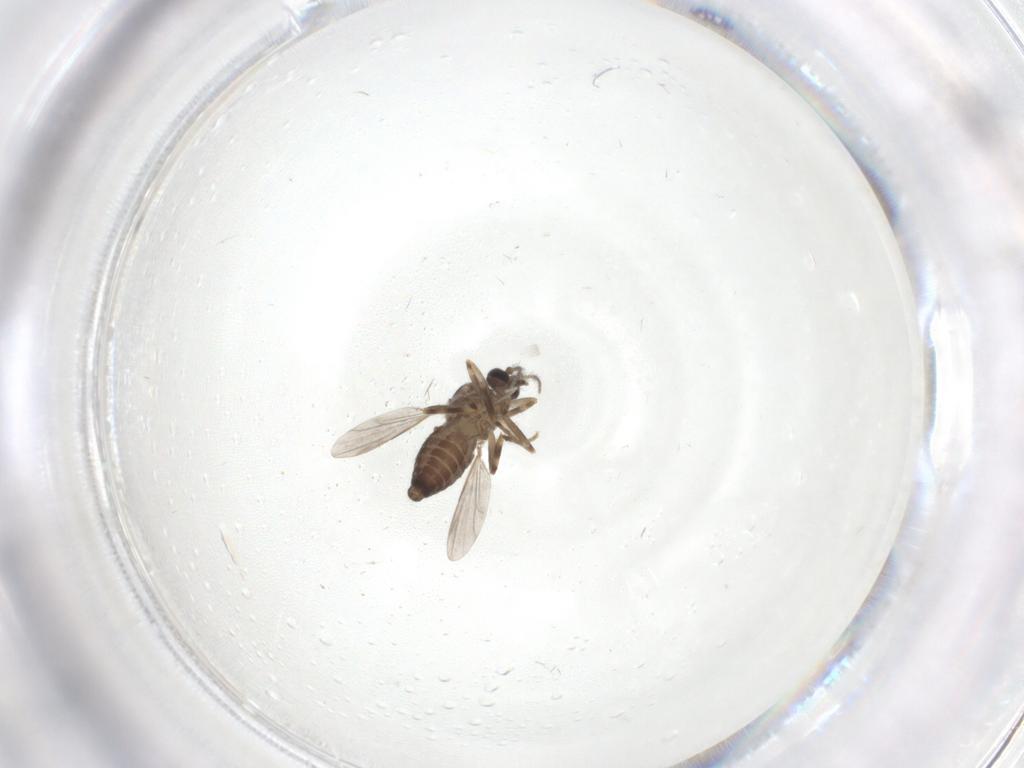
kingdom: Animalia
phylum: Arthropoda
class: Insecta
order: Diptera
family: Ceratopogonidae
